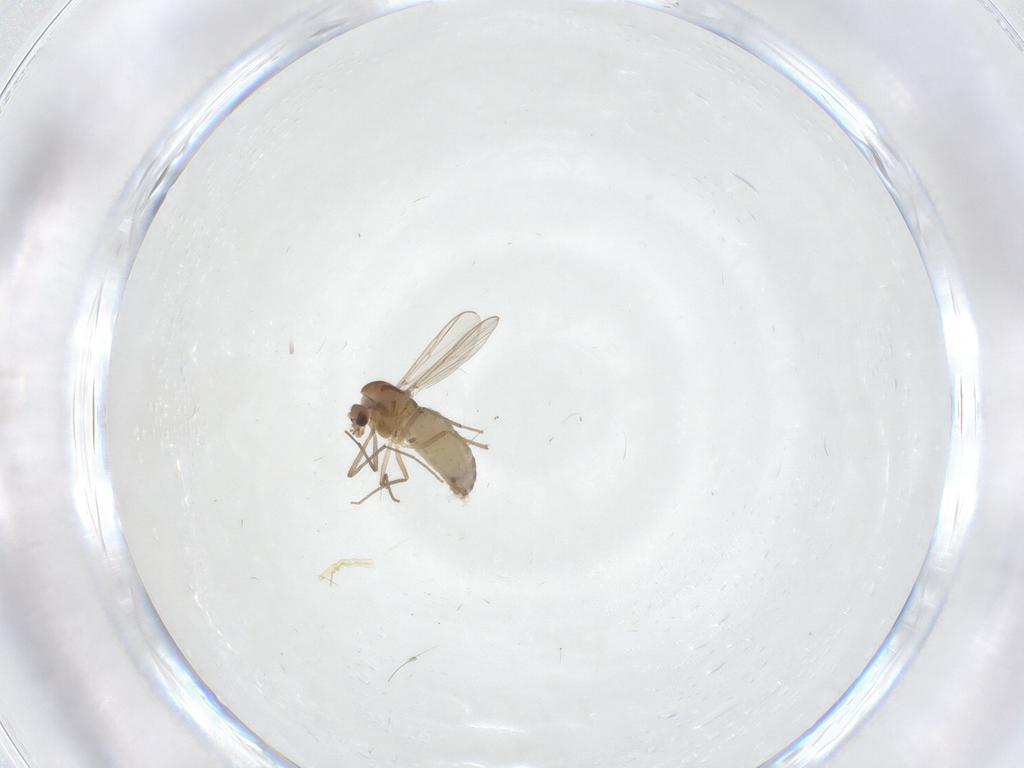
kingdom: Animalia
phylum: Arthropoda
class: Insecta
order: Diptera
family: Chironomidae
